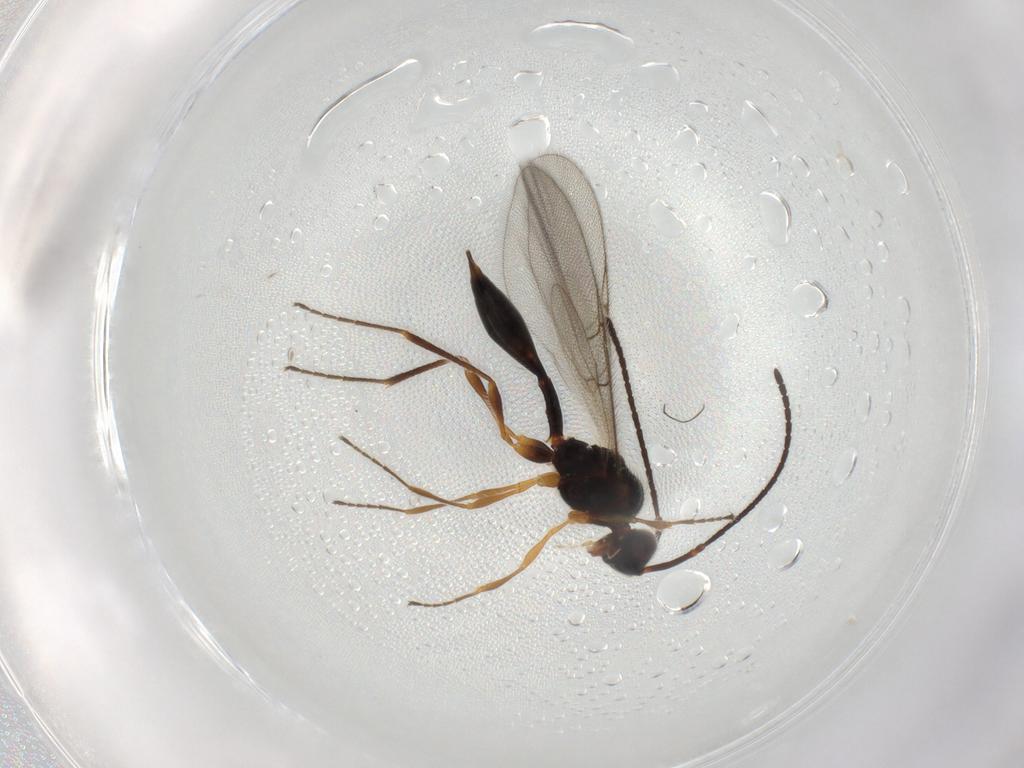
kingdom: Animalia
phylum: Arthropoda
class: Insecta
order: Hymenoptera
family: Diapriidae
